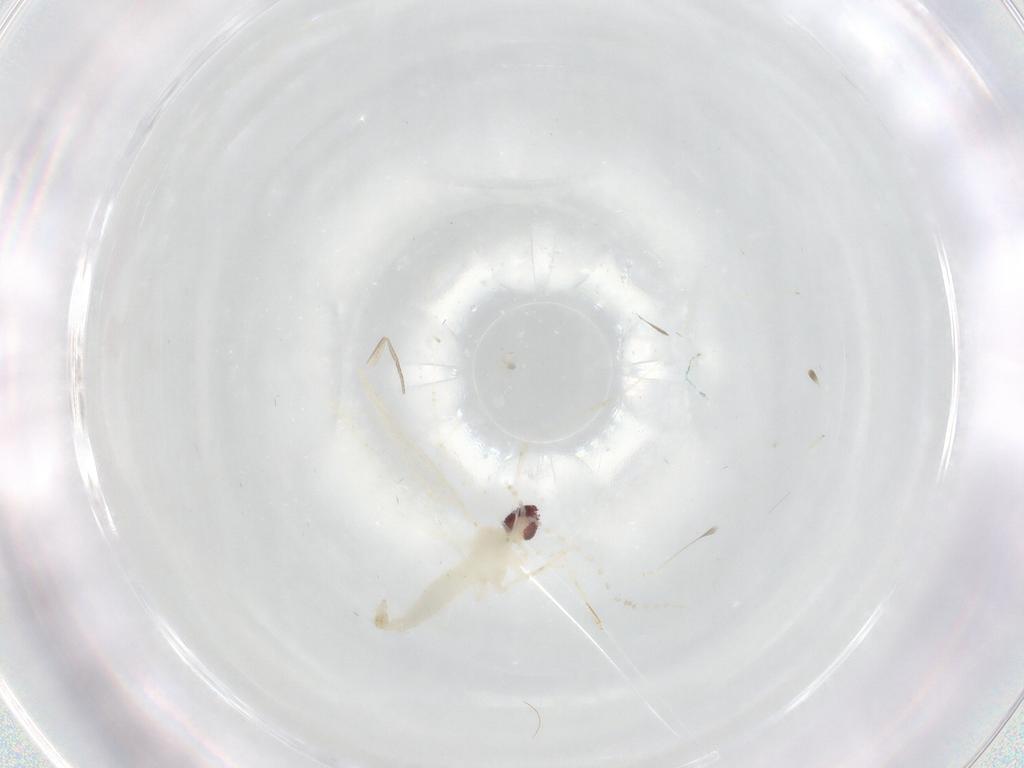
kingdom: Animalia
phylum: Arthropoda
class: Insecta
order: Diptera
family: Cecidomyiidae
